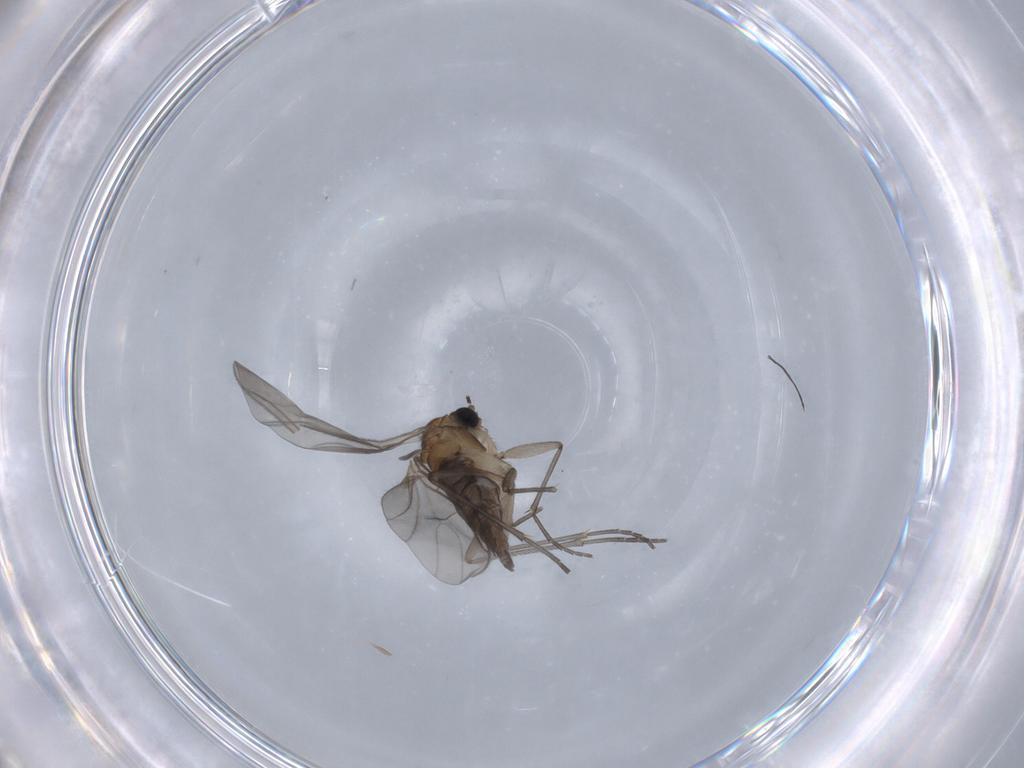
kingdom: Animalia
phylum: Arthropoda
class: Insecta
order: Diptera
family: Sciaridae
